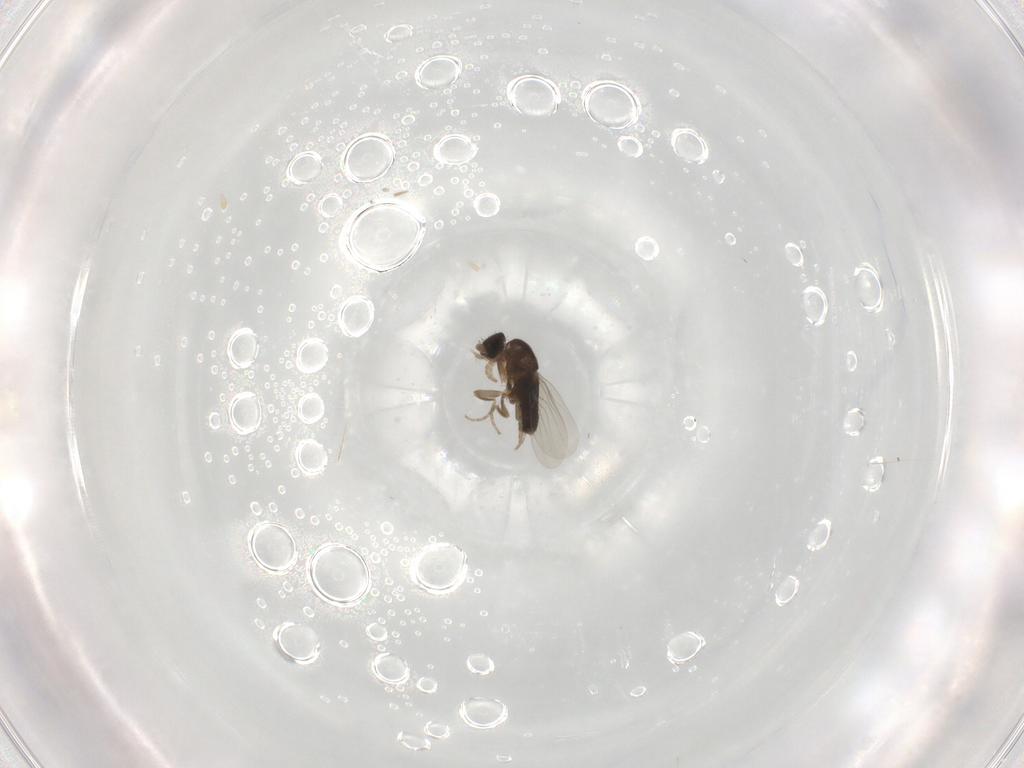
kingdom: Animalia
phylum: Arthropoda
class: Insecta
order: Diptera
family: Phoridae
